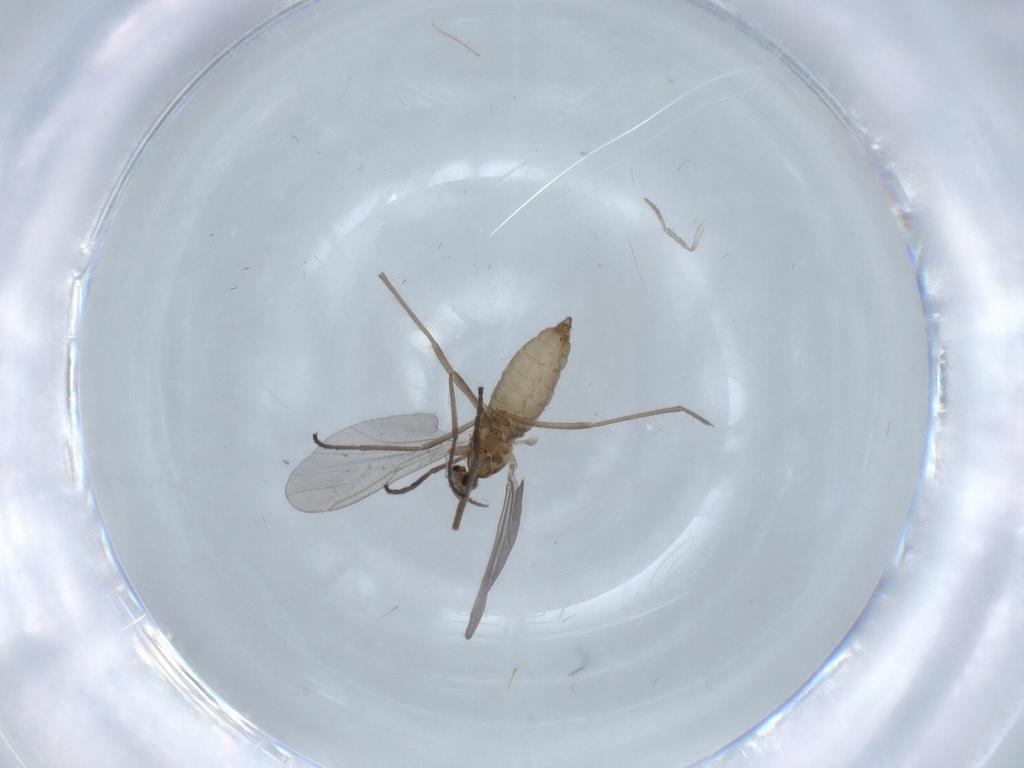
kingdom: Animalia
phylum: Arthropoda
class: Insecta
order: Diptera
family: Cecidomyiidae
